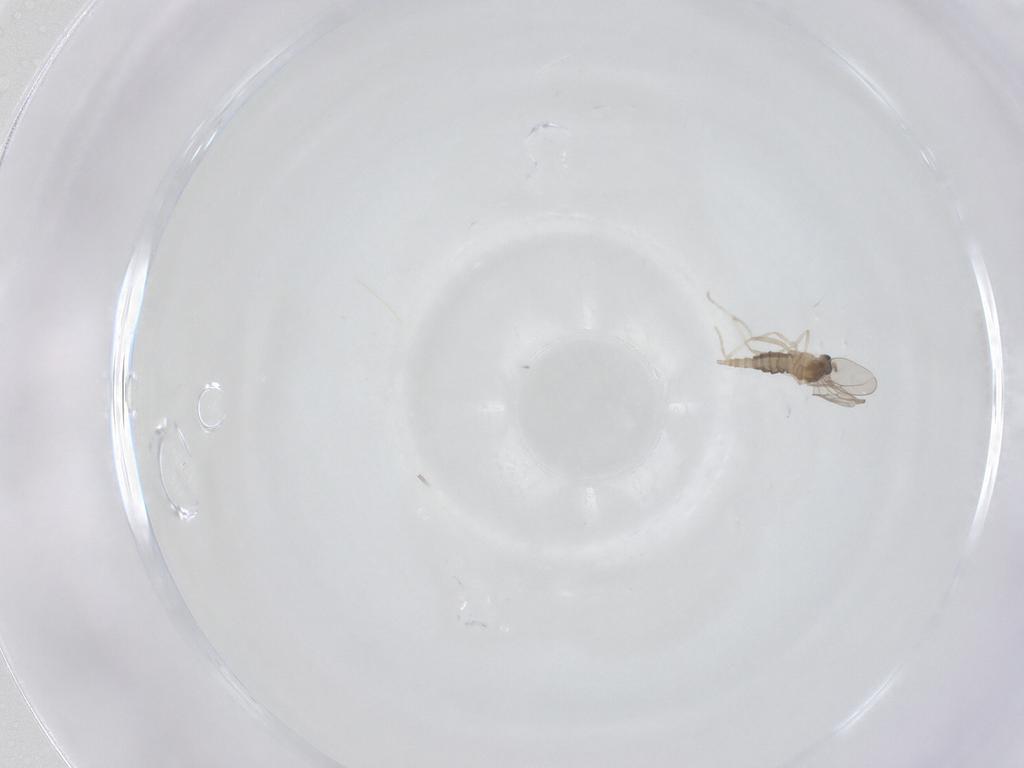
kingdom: Animalia
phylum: Arthropoda
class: Insecta
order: Diptera
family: Cecidomyiidae
